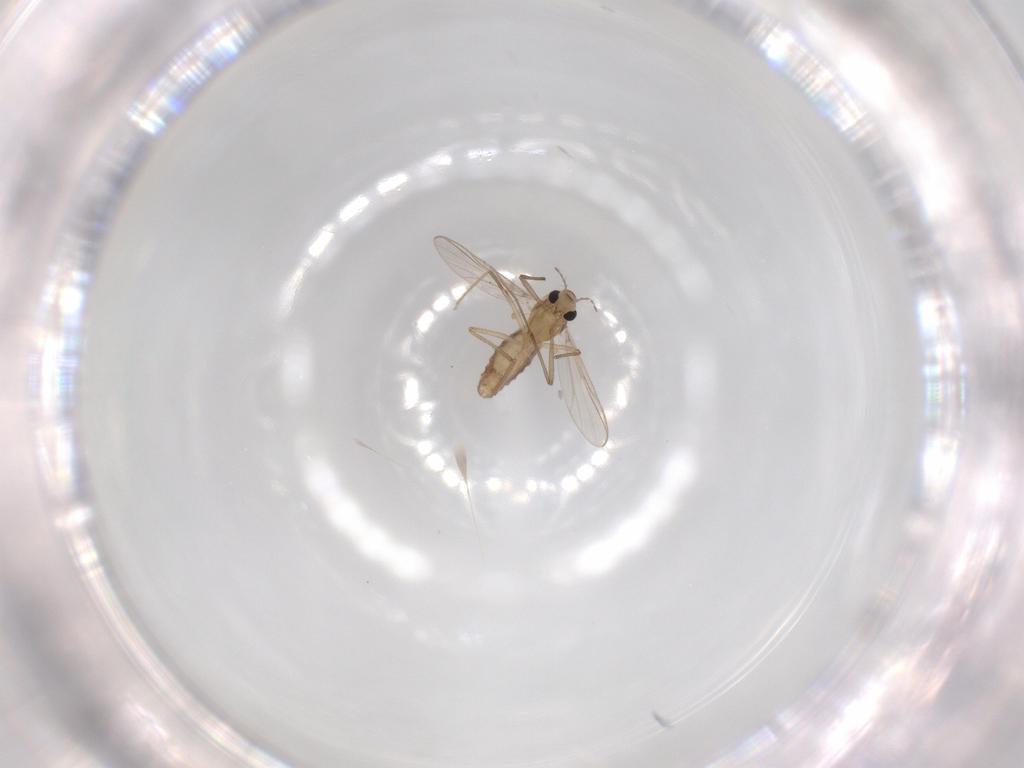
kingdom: Animalia
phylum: Arthropoda
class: Insecta
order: Diptera
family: Chironomidae
